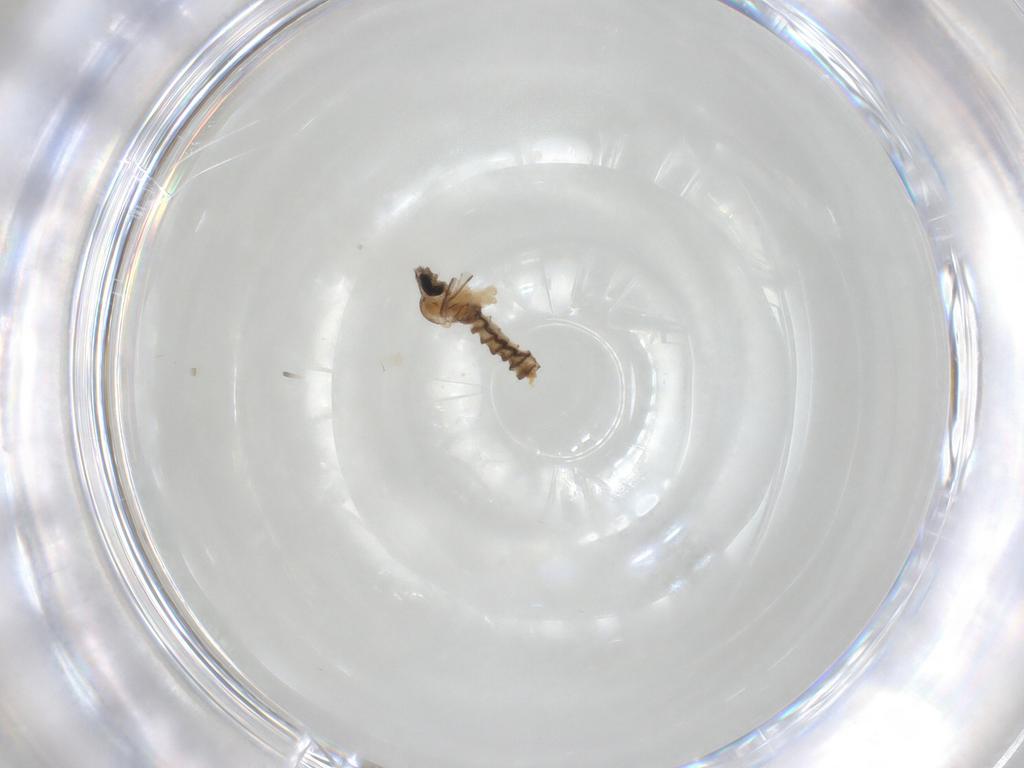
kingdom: Animalia
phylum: Arthropoda
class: Insecta
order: Diptera
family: Cecidomyiidae
